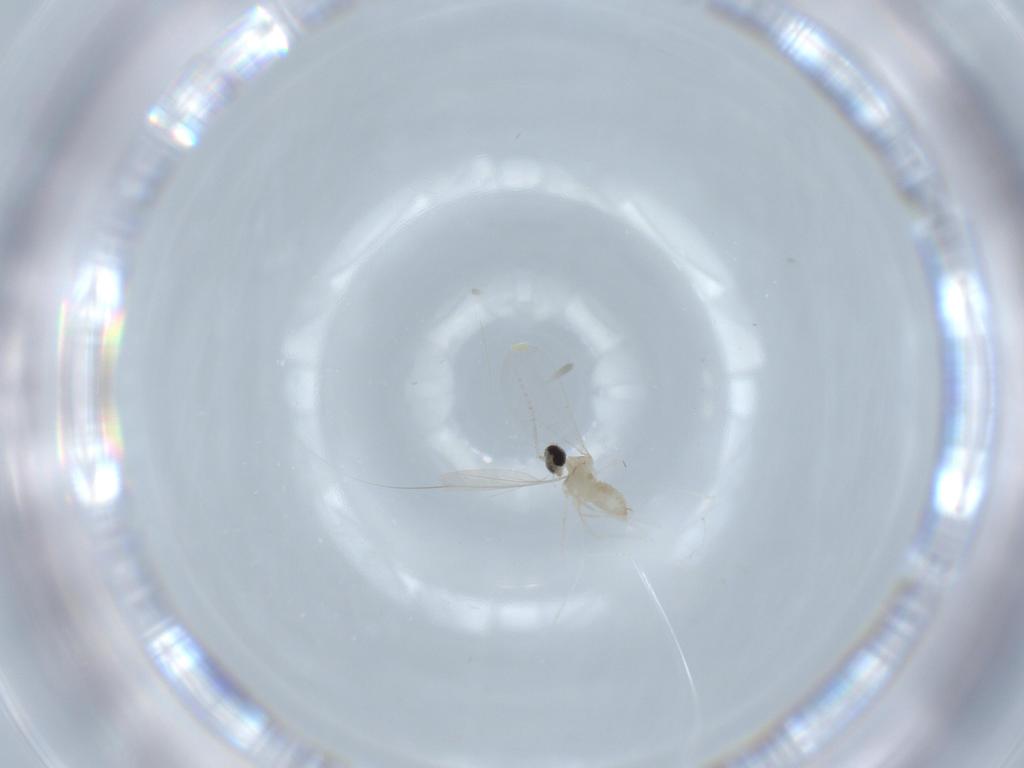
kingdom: Animalia
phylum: Arthropoda
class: Insecta
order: Diptera
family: Cecidomyiidae
